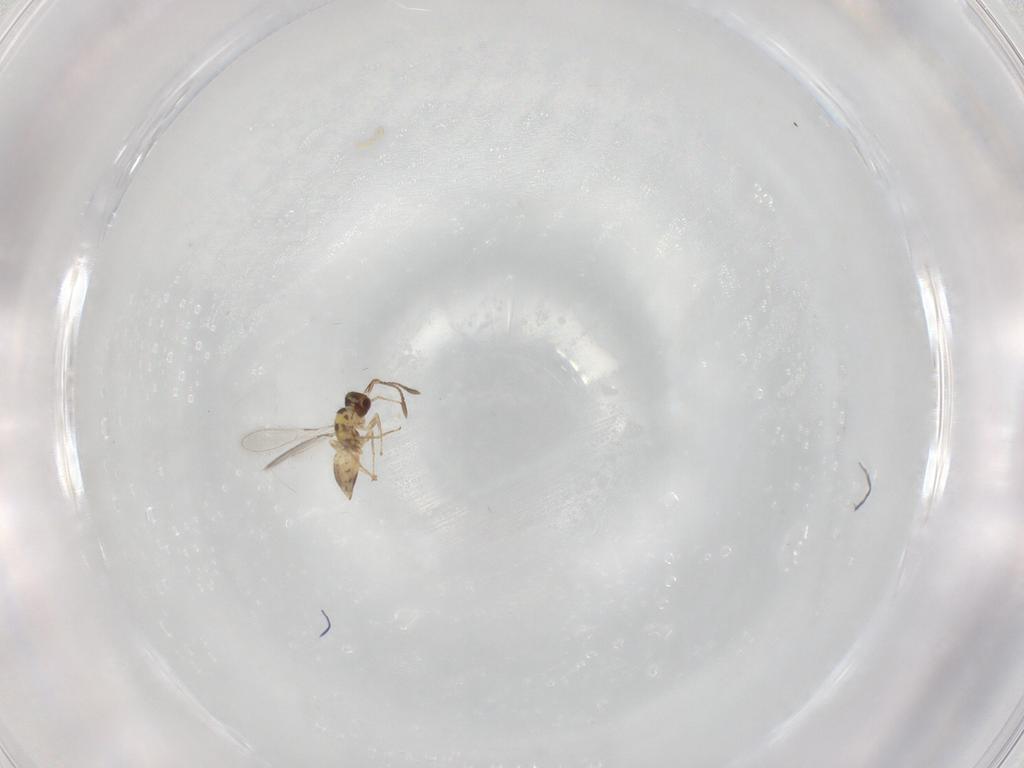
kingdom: Animalia
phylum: Arthropoda
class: Insecta
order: Hymenoptera
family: Mymaridae
